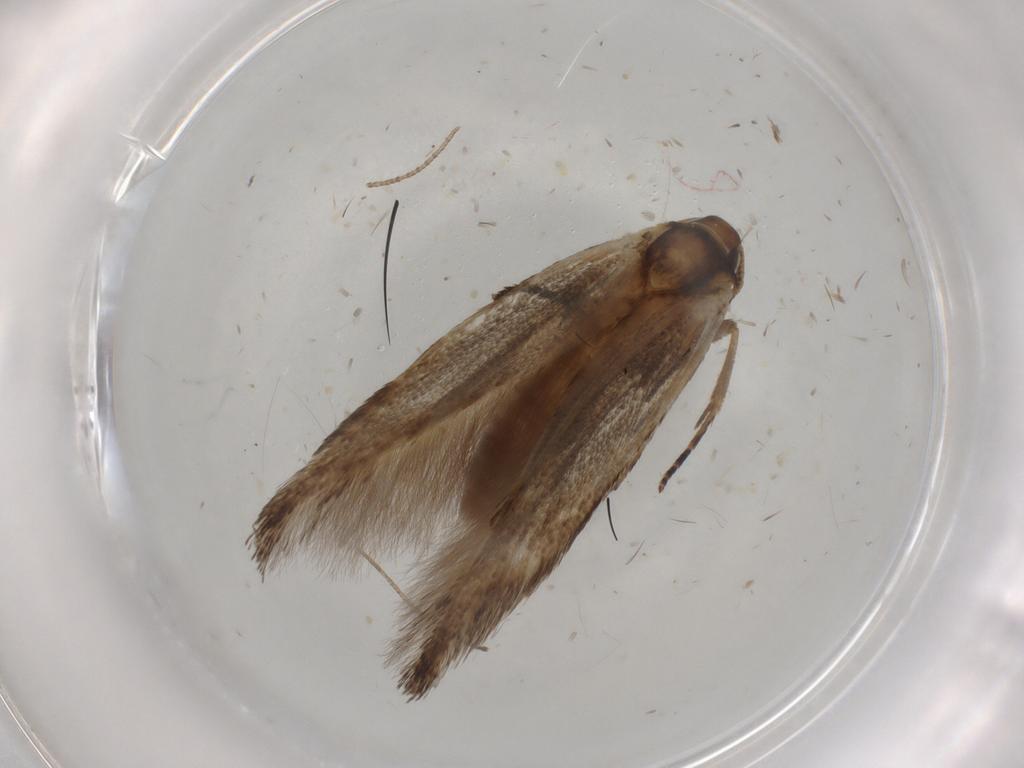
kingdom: Animalia
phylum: Arthropoda
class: Insecta
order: Lepidoptera
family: Cosmopterigidae
